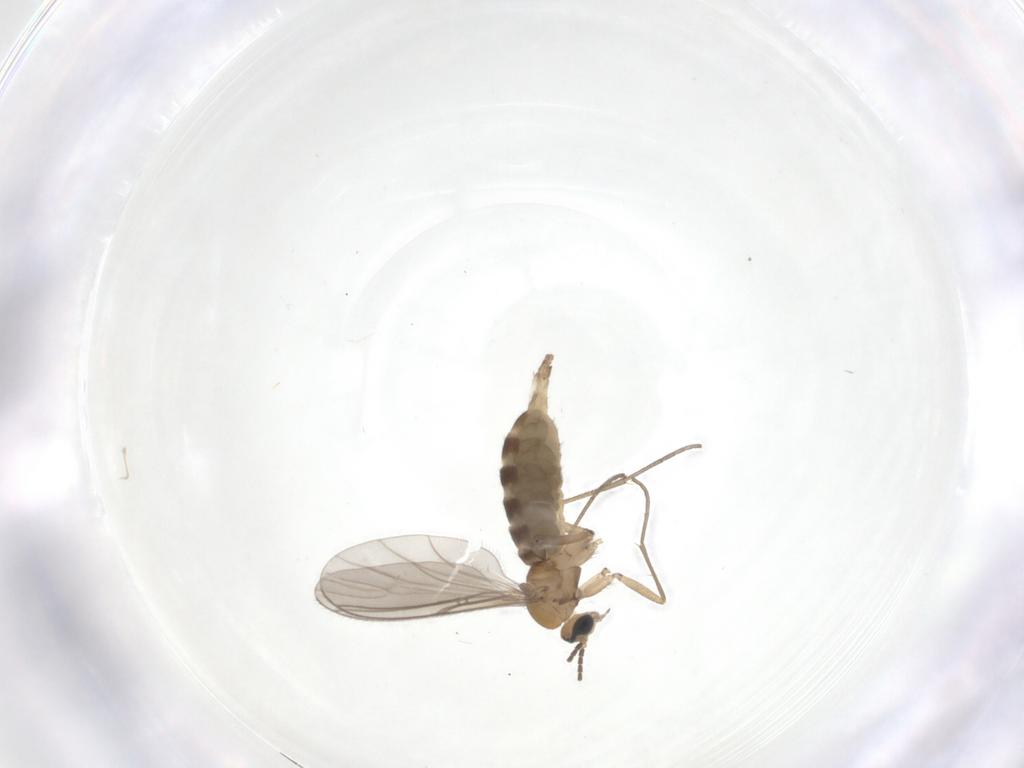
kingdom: Animalia
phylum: Arthropoda
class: Insecta
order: Diptera
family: Sciaridae
